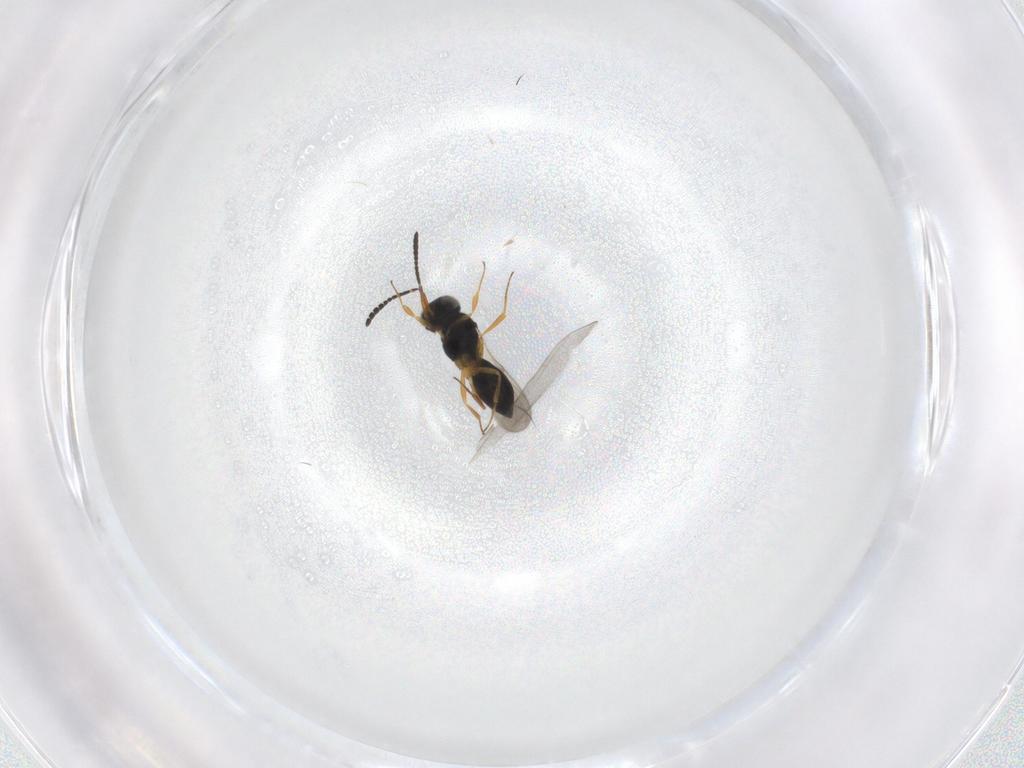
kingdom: Animalia
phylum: Arthropoda
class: Insecta
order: Hymenoptera
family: Scelionidae
